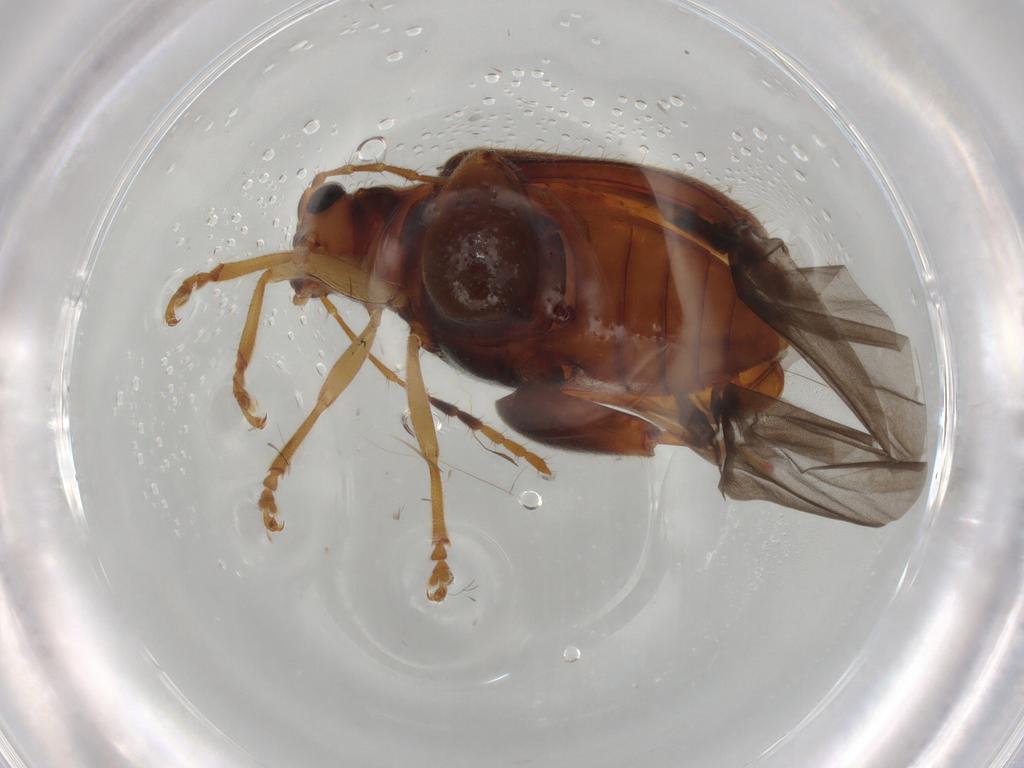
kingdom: Animalia
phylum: Arthropoda
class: Insecta
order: Coleoptera
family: Chrysomelidae
